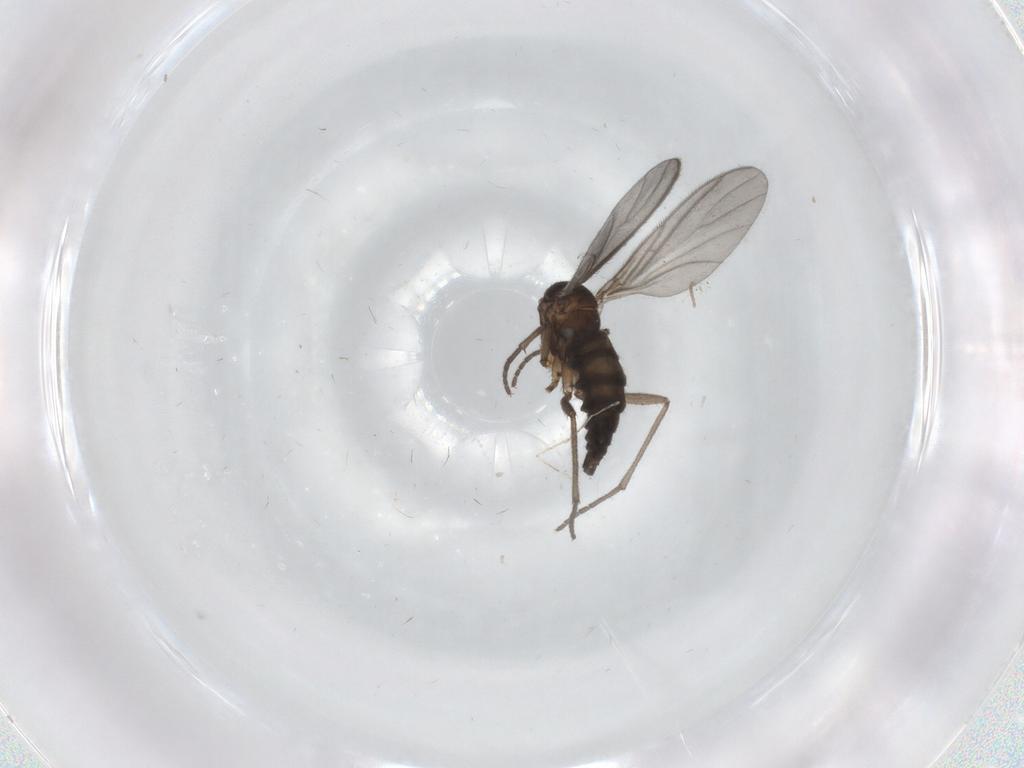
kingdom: Animalia
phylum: Arthropoda
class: Insecta
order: Diptera
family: Sciaridae
